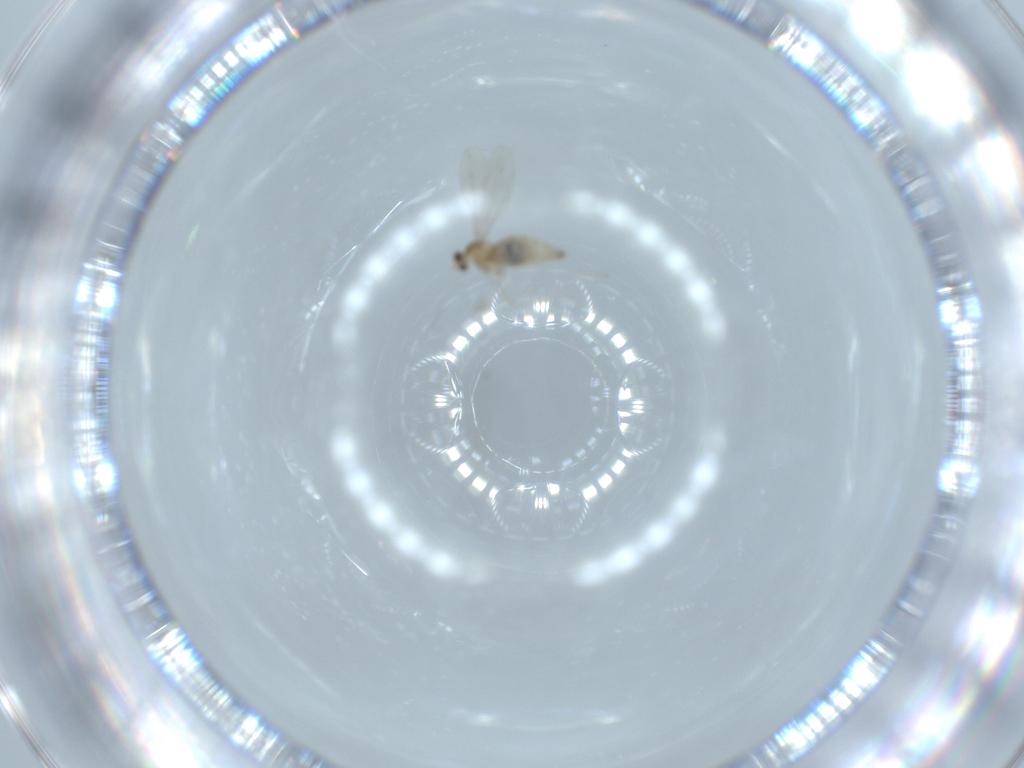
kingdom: Animalia
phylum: Arthropoda
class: Insecta
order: Diptera
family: Cecidomyiidae
